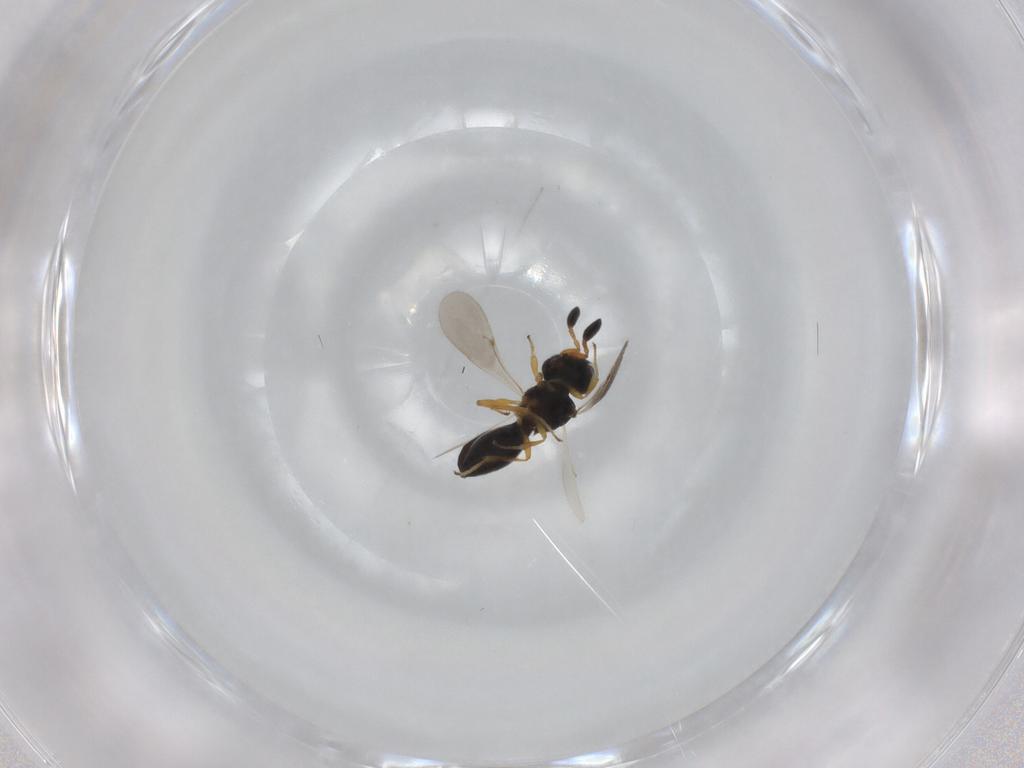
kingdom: Animalia
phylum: Arthropoda
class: Insecta
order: Hymenoptera
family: Scelionidae
